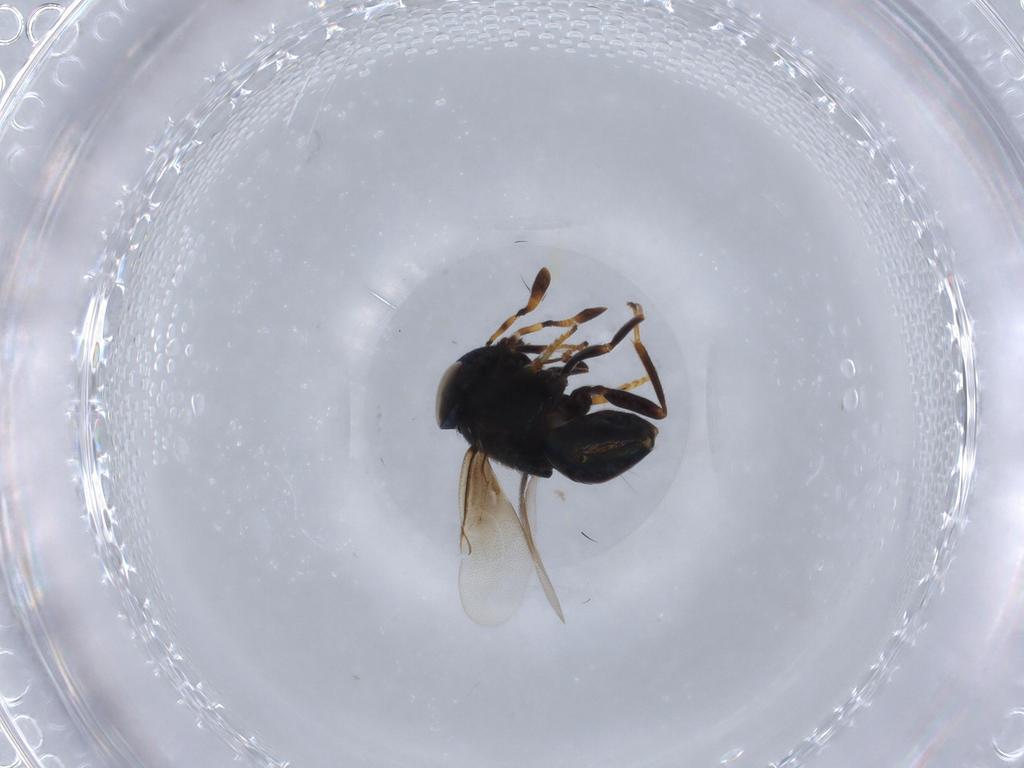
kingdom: Animalia
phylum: Arthropoda
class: Insecta
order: Hymenoptera
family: Encyrtidae
